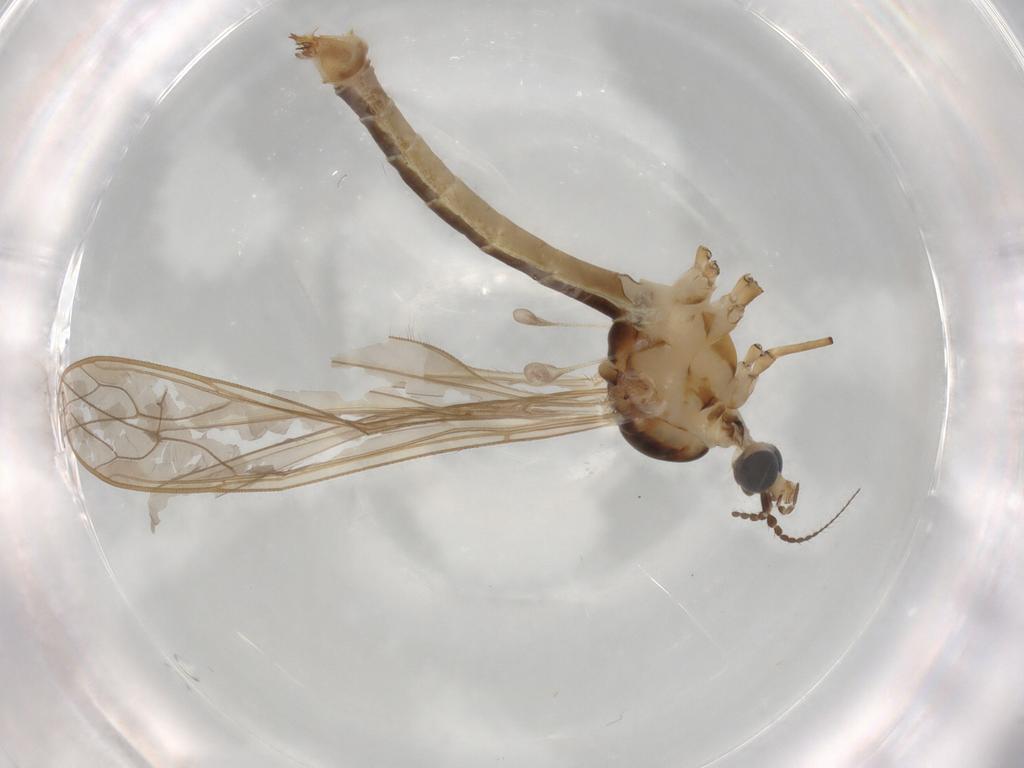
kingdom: Animalia
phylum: Arthropoda
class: Insecta
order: Diptera
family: Limoniidae
